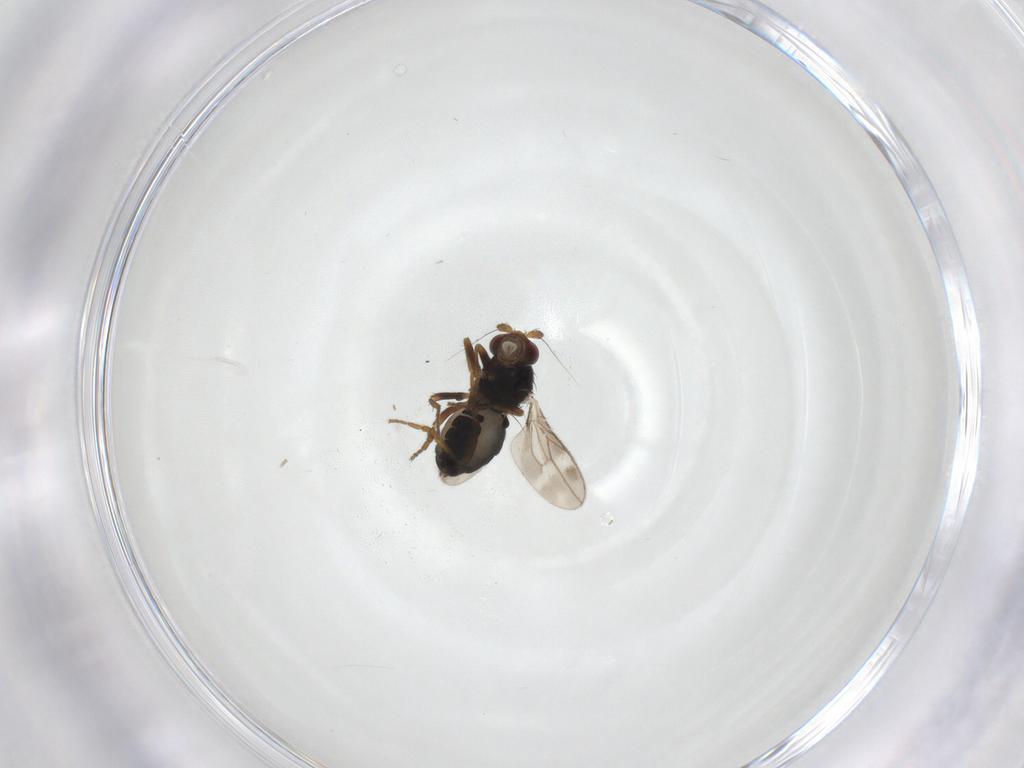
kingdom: Animalia
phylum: Arthropoda
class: Insecta
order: Diptera
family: Sphaeroceridae
